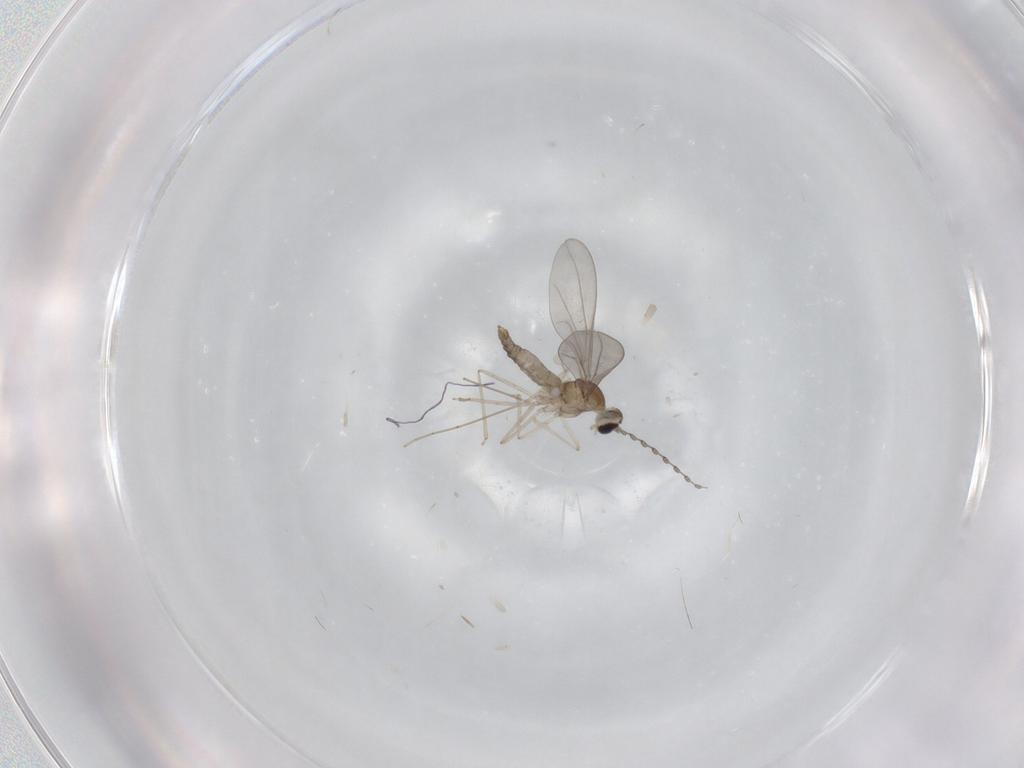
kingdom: Animalia
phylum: Arthropoda
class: Insecta
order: Diptera
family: Cecidomyiidae
